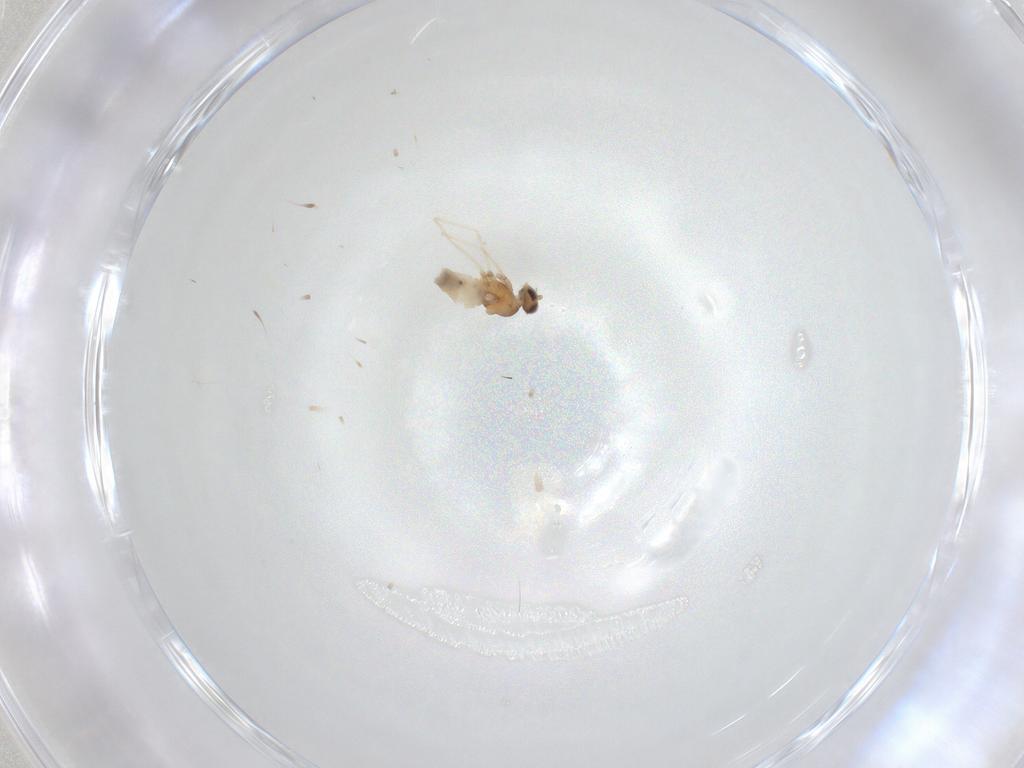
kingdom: Animalia
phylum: Arthropoda
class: Insecta
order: Diptera
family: Cecidomyiidae
